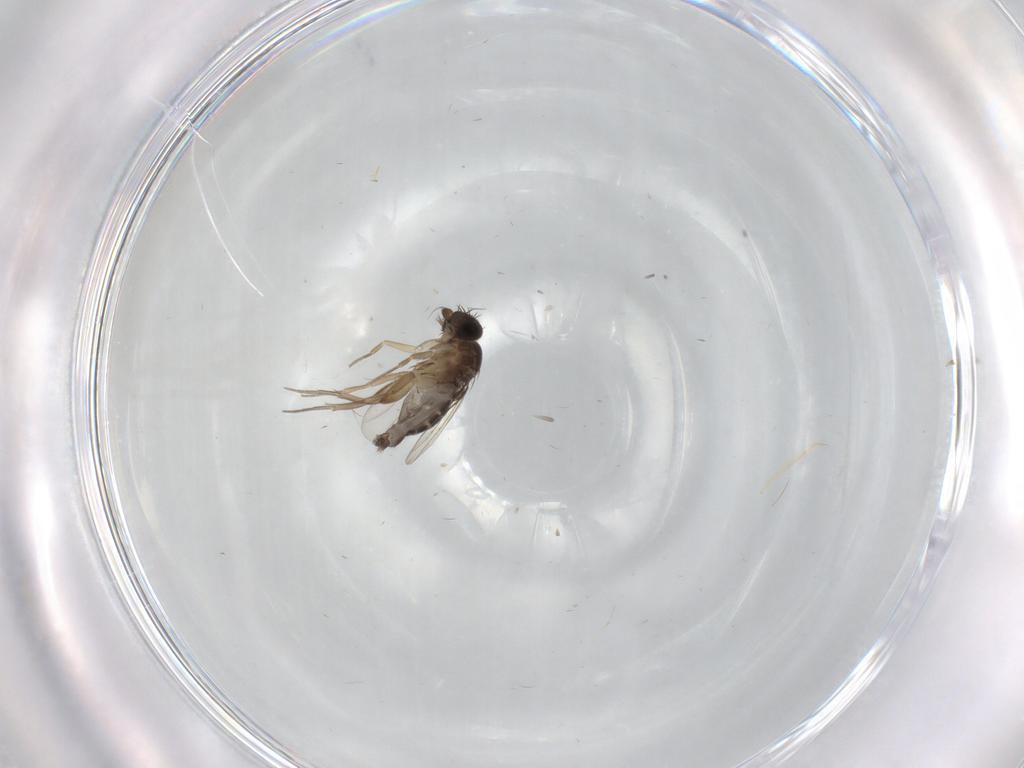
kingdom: Animalia
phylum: Arthropoda
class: Insecta
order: Diptera
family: Phoridae
